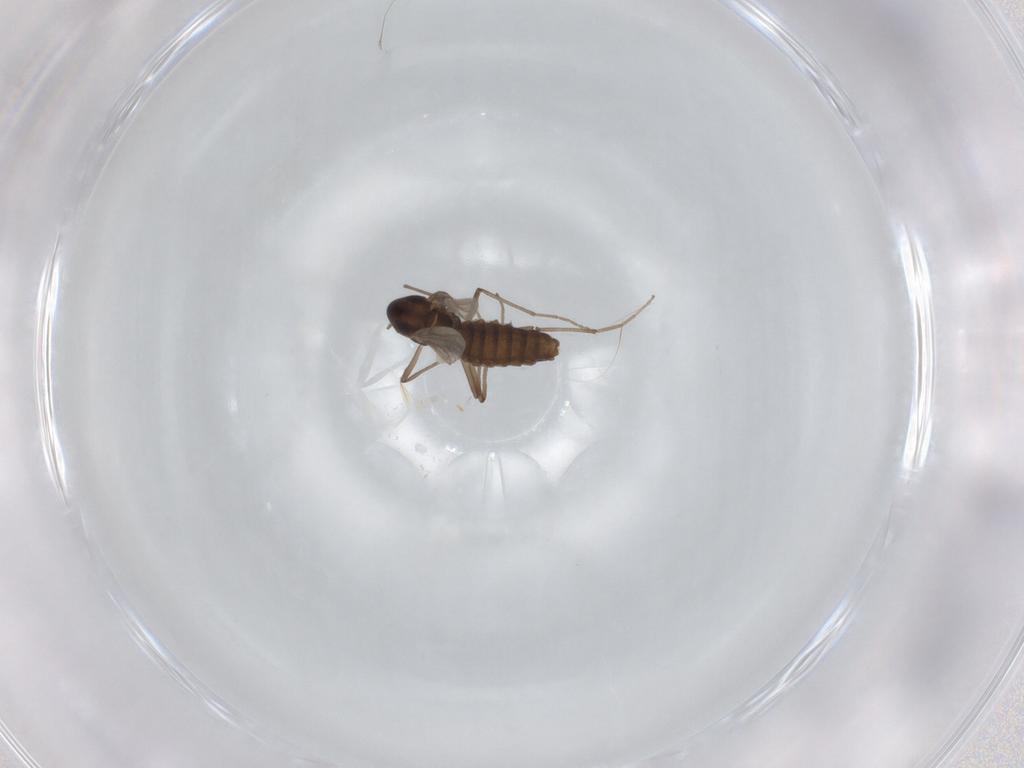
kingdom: Animalia
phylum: Arthropoda
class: Insecta
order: Diptera
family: Chironomidae
